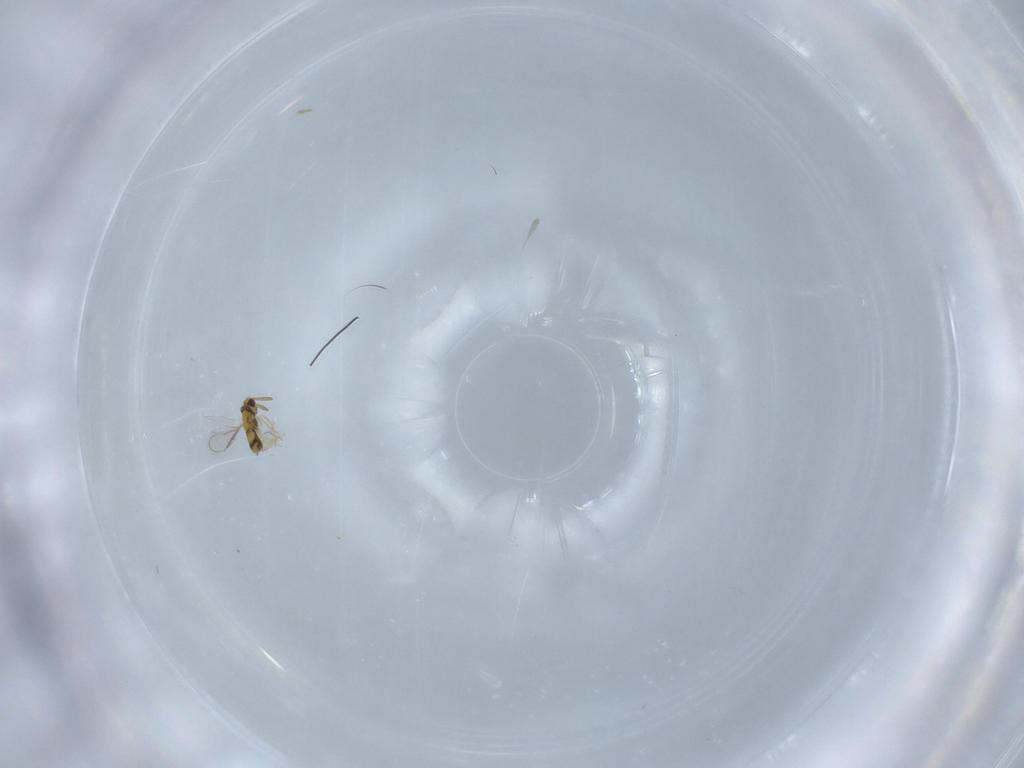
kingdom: Animalia
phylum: Arthropoda
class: Insecta
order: Hymenoptera
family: Aphelinidae
